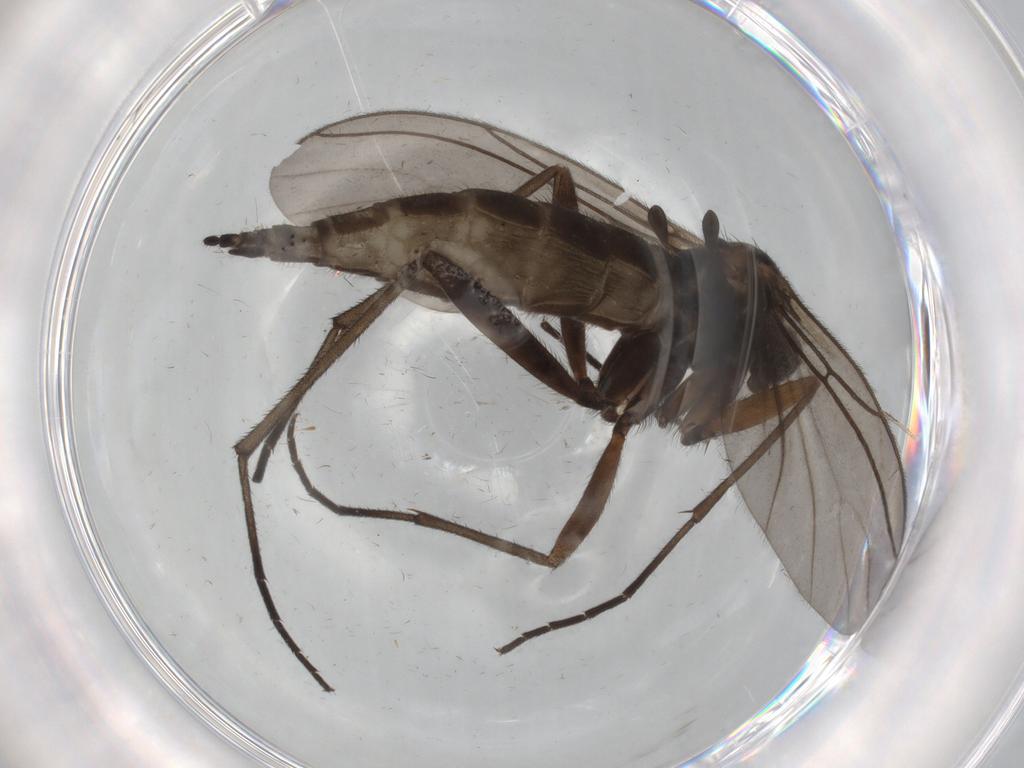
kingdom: Animalia
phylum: Arthropoda
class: Insecta
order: Diptera
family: Sciaridae
